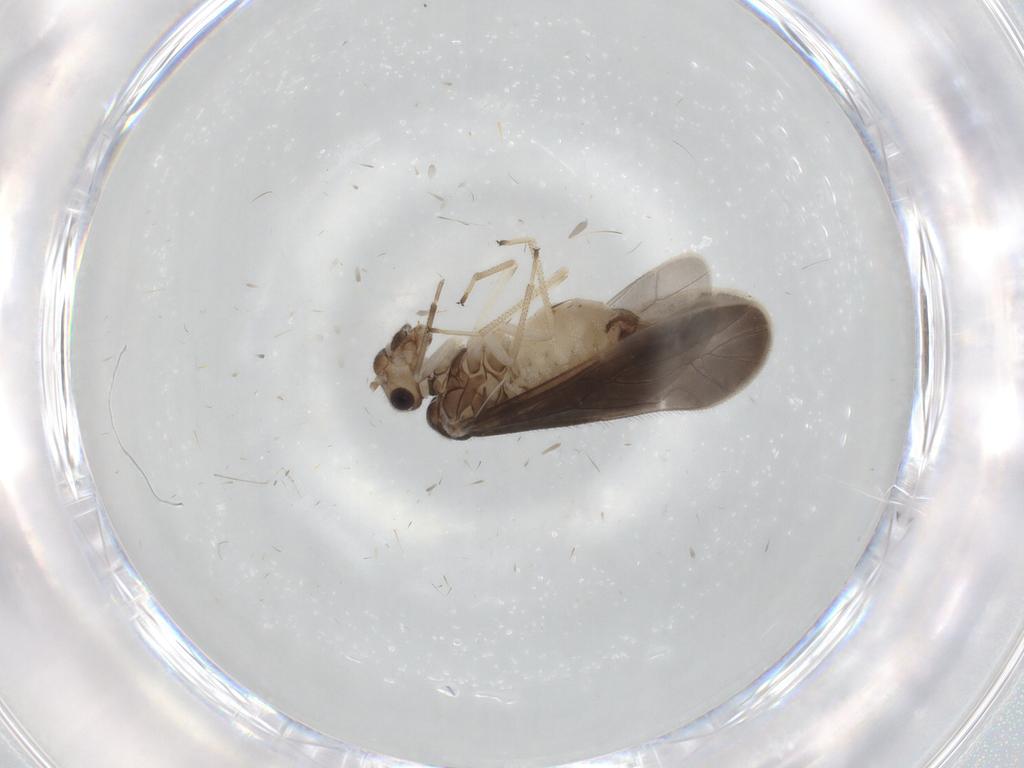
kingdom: Animalia
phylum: Arthropoda
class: Insecta
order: Psocodea
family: Caeciliusidae
